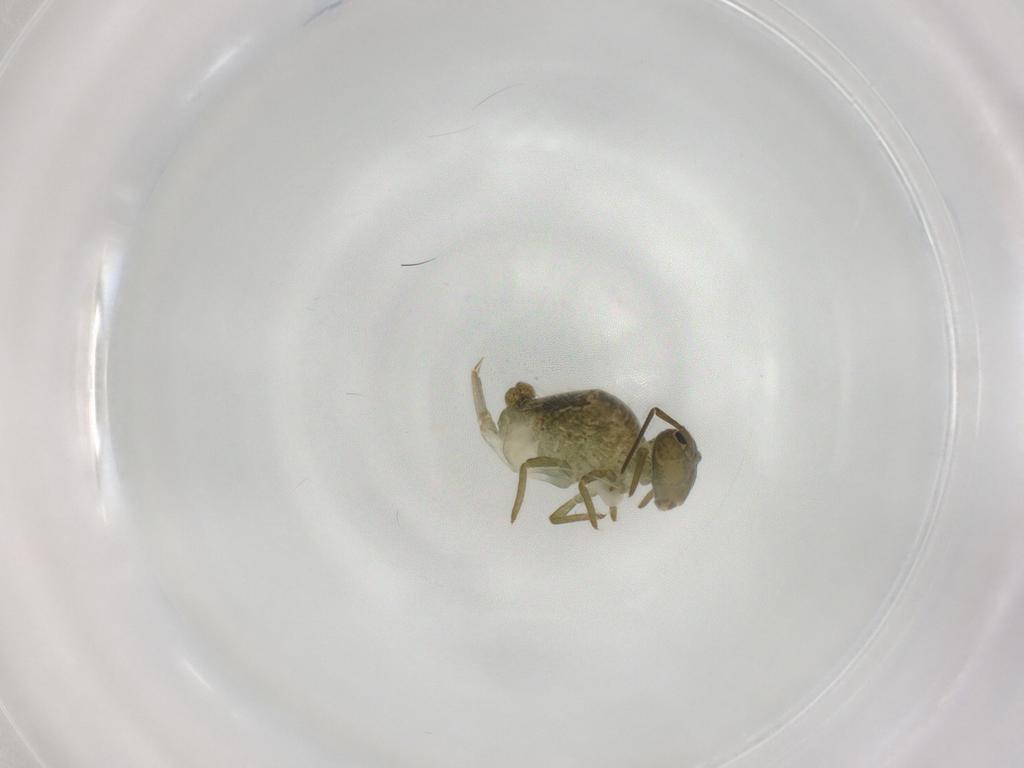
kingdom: Animalia
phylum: Arthropoda
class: Collembola
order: Symphypleona
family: Sminthuridae
